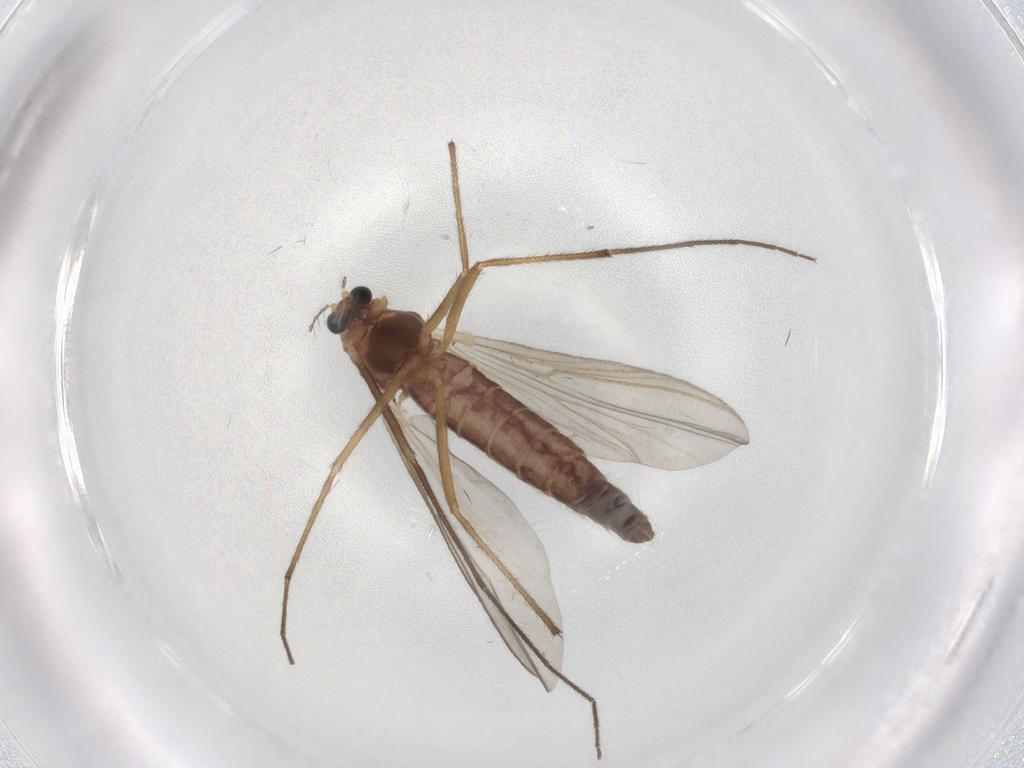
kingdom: Animalia
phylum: Arthropoda
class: Insecta
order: Diptera
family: Chironomidae
